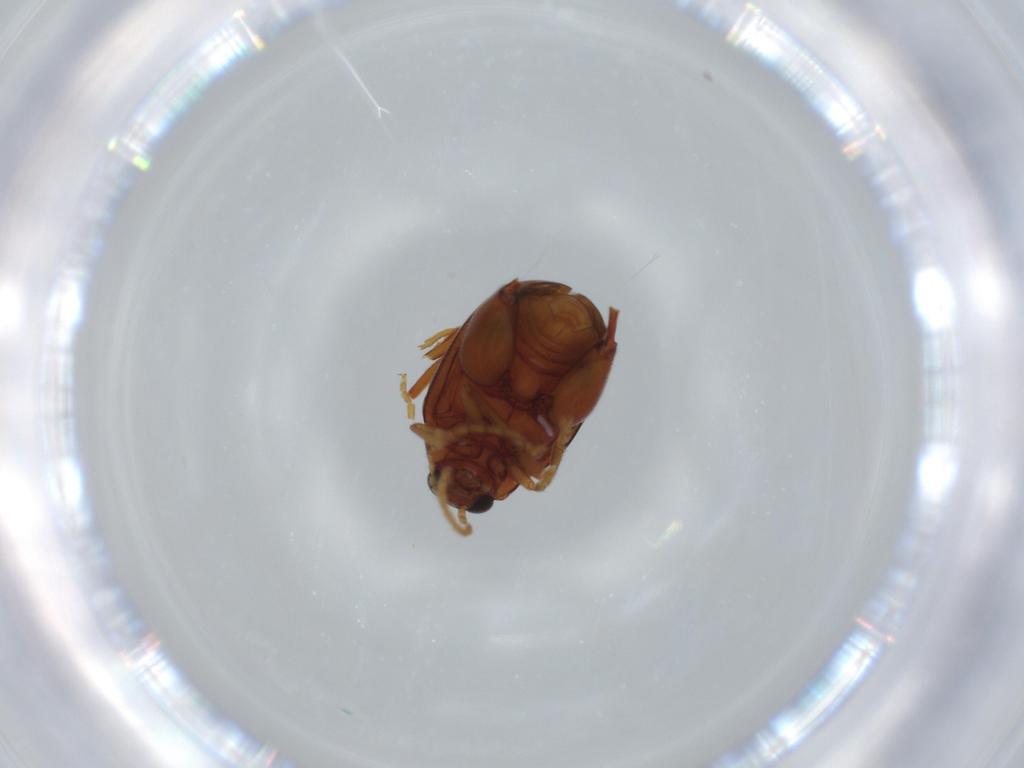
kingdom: Animalia
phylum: Arthropoda
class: Insecta
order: Coleoptera
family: Chrysomelidae
